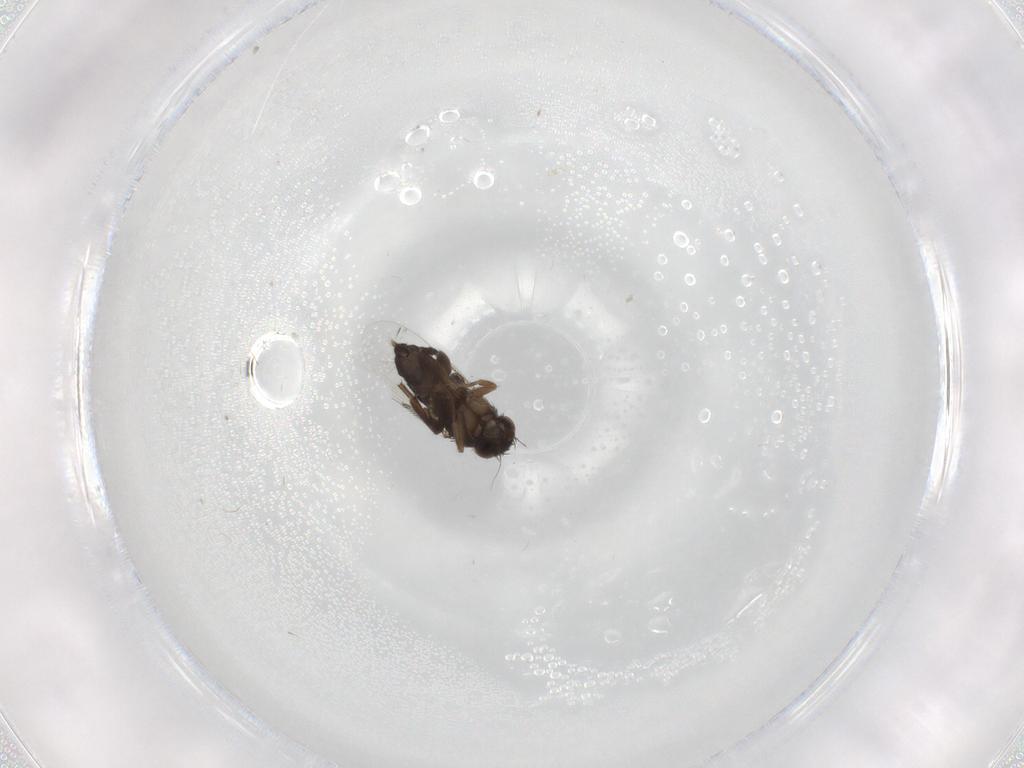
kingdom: Animalia
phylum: Arthropoda
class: Insecta
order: Diptera
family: Phoridae
